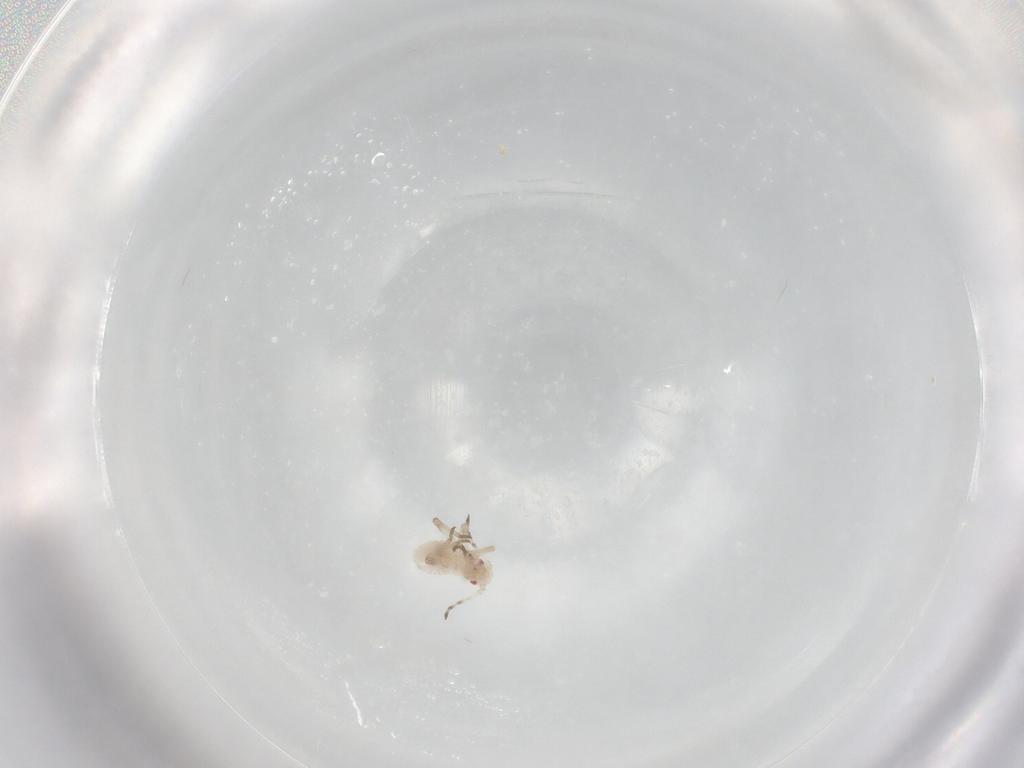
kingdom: Animalia
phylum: Arthropoda
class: Insecta
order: Hemiptera
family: Aphididae
